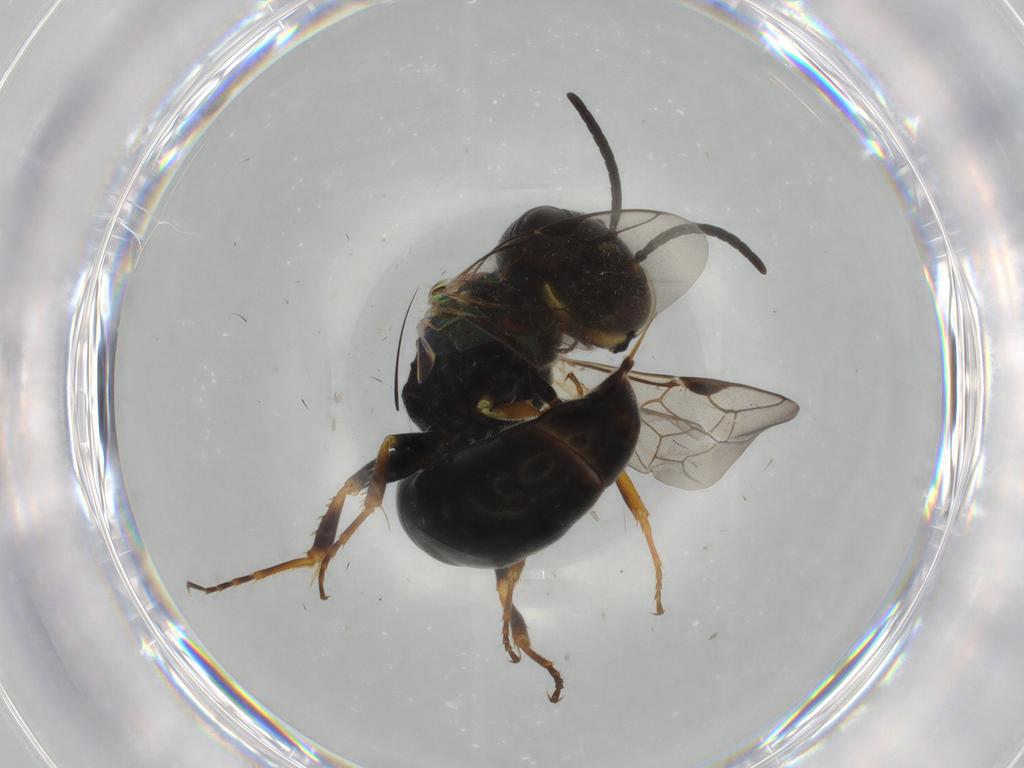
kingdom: Animalia
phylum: Arthropoda
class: Insecta
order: Hymenoptera
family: Crabronidae
